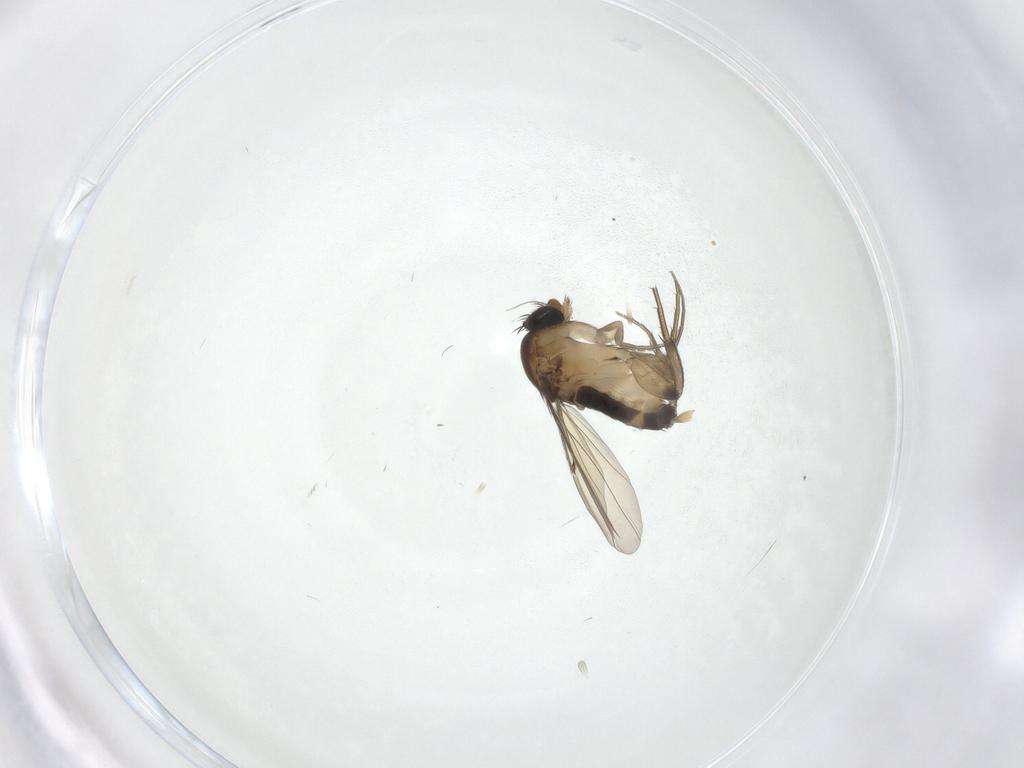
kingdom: Animalia
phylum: Arthropoda
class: Insecta
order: Diptera
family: Phoridae
